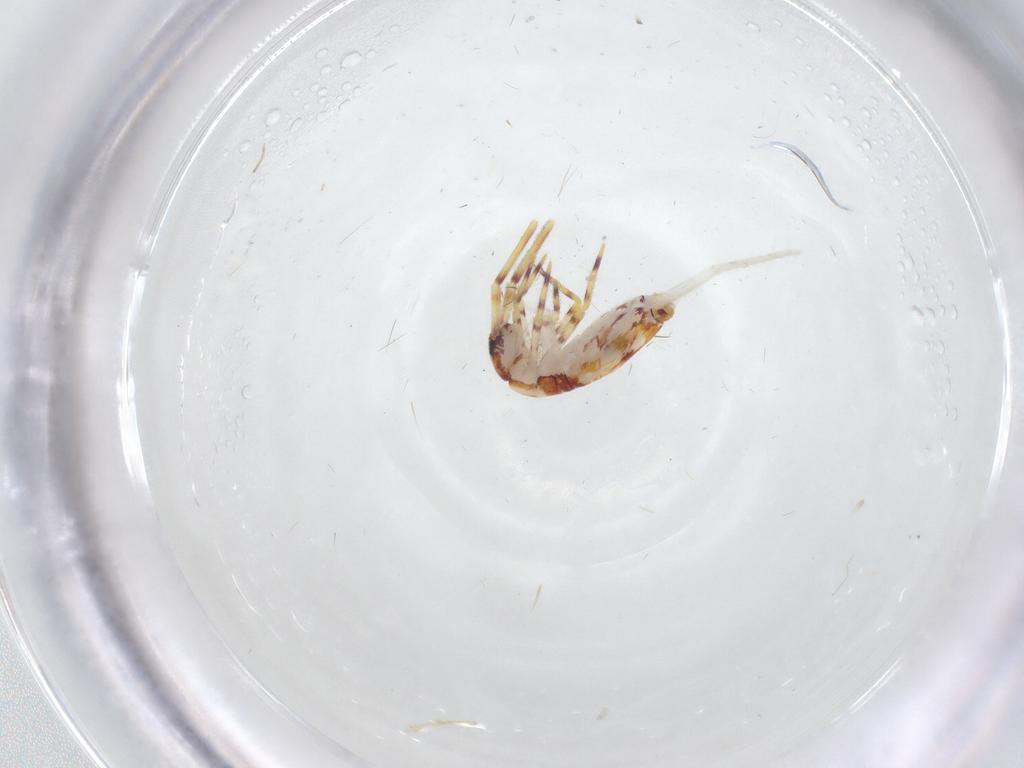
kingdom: Animalia
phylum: Arthropoda
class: Collembola
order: Entomobryomorpha
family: Entomobryidae
